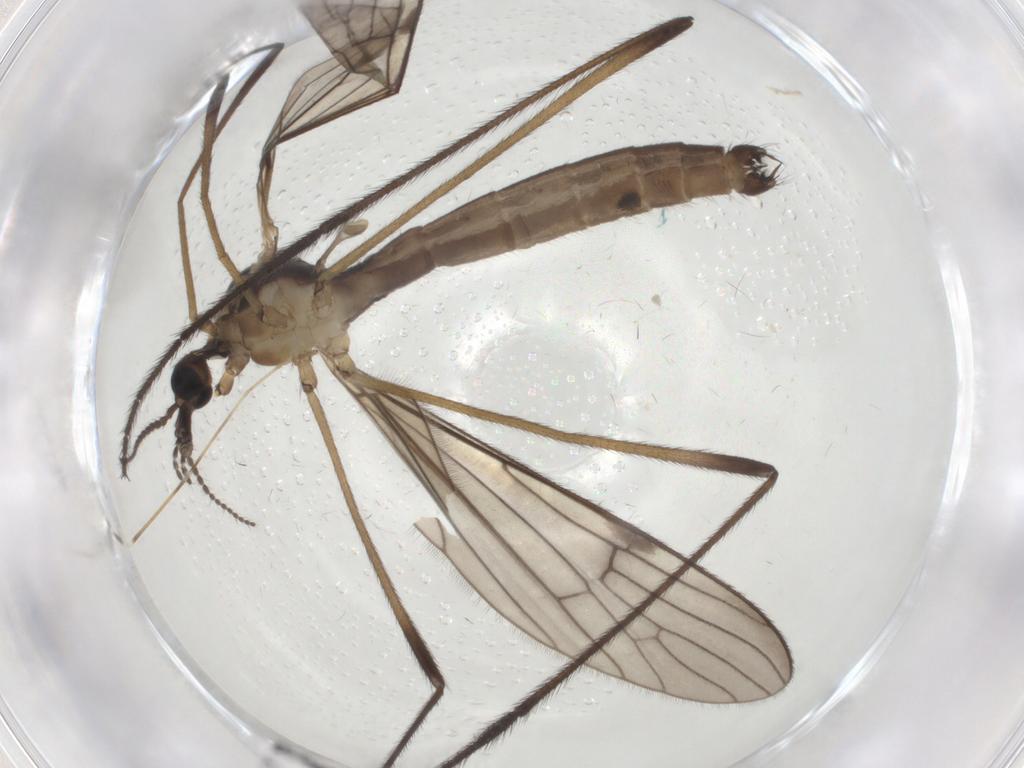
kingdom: Animalia
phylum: Arthropoda
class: Insecta
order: Diptera
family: Limoniidae
